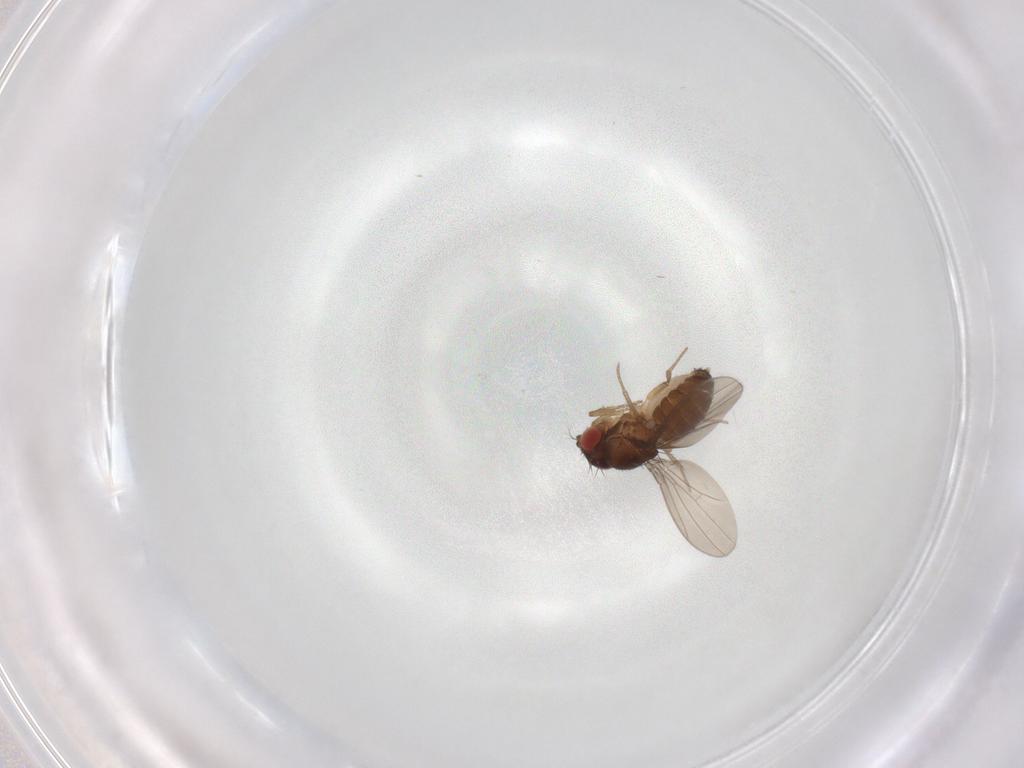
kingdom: Animalia
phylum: Arthropoda
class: Insecta
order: Diptera
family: Drosophilidae
